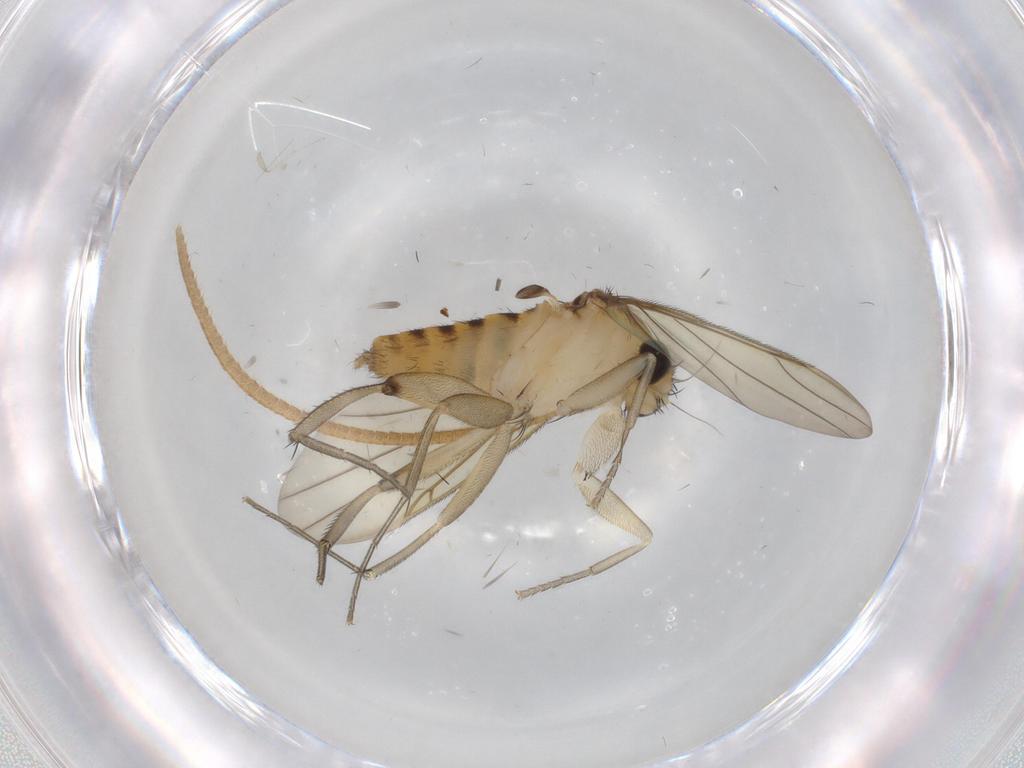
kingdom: Animalia
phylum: Arthropoda
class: Insecta
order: Diptera
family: Phoridae
